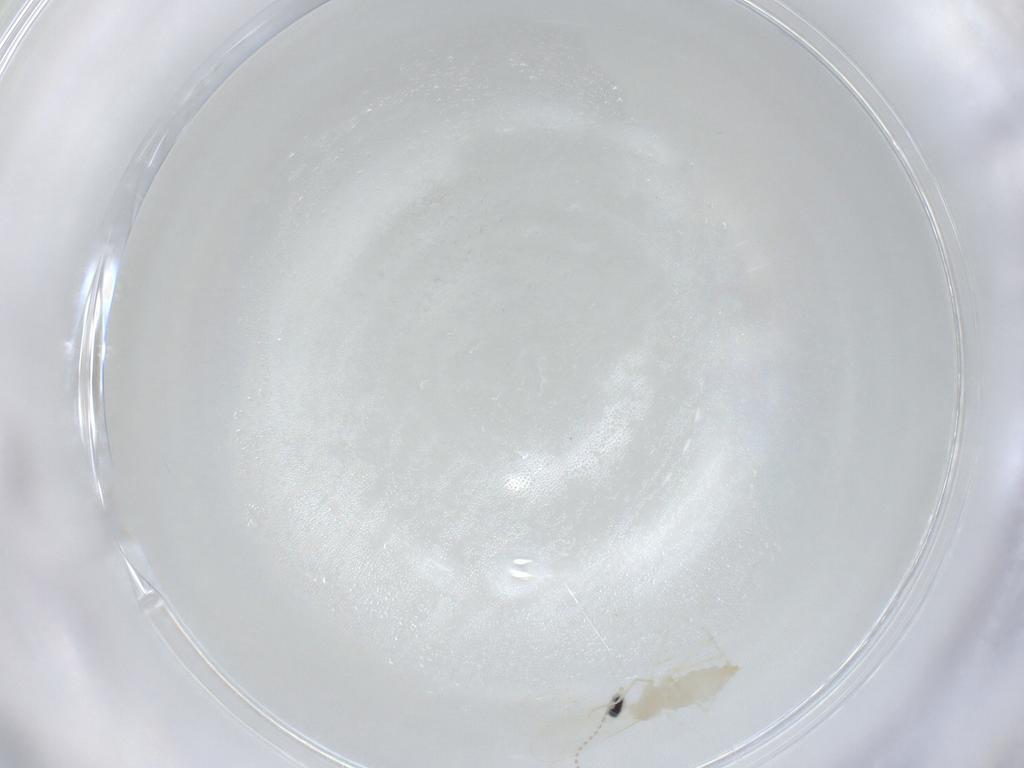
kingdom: Animalia
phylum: Arthropoda
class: Insecta
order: Diptera
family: Cecidomyiidae
